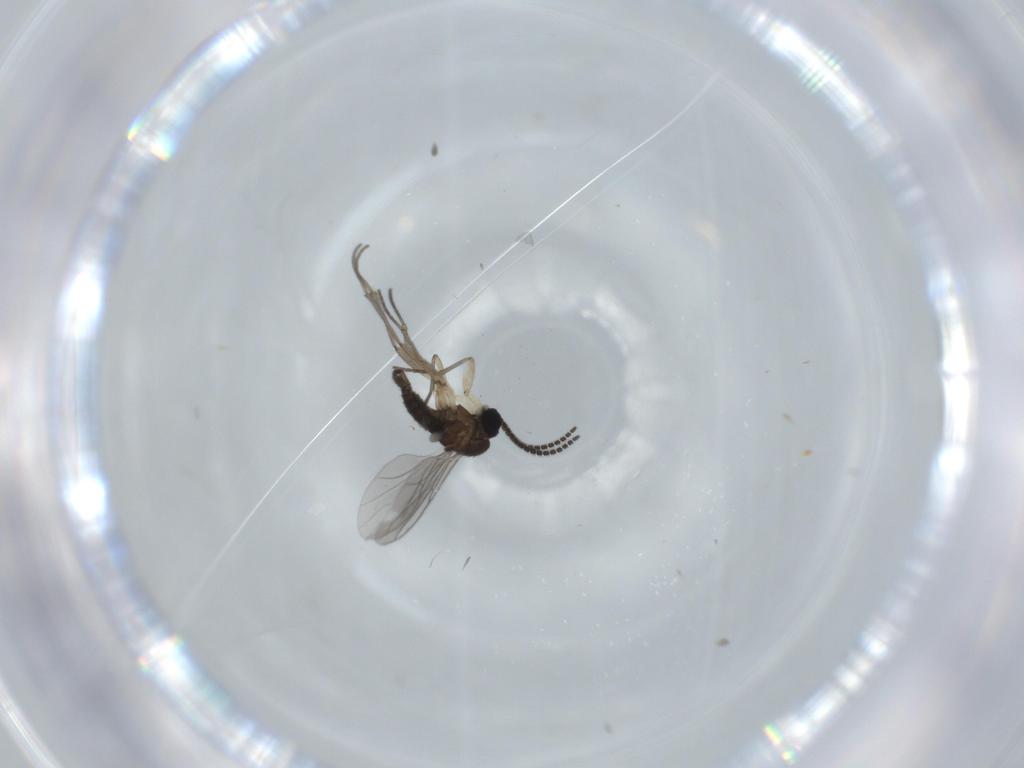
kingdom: Animalia
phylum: Arthropoda
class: Insecta
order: Diptera
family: Sciaridae
